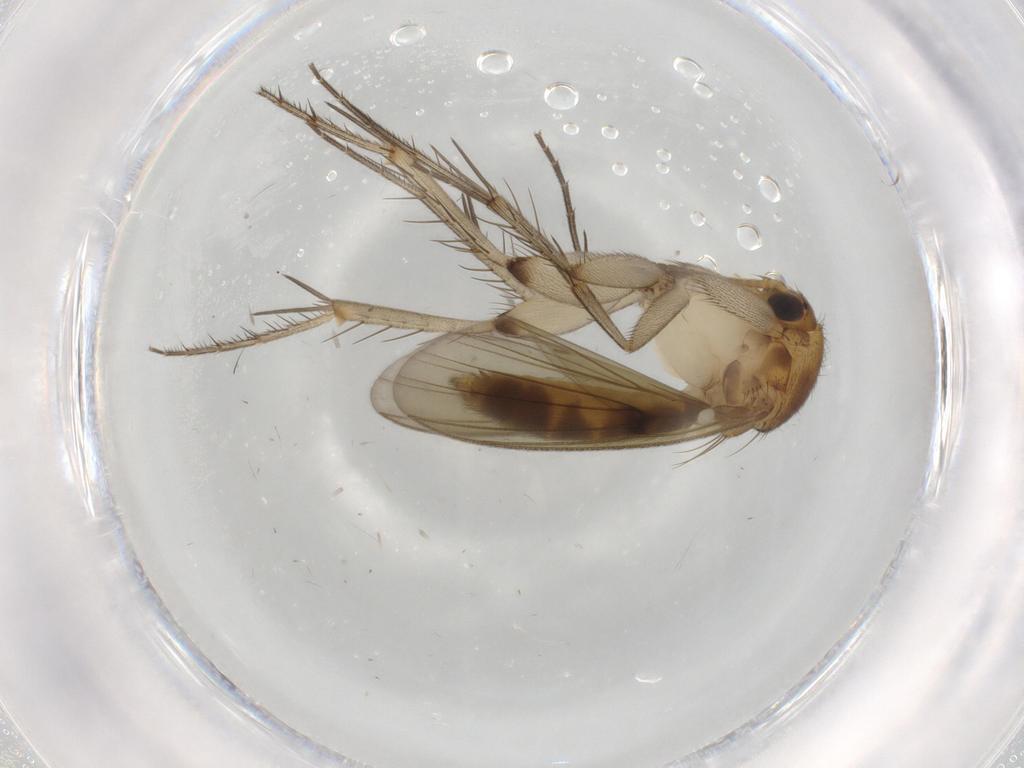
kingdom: Animalia
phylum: Arthropoda
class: Insecta
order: Diptera
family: Mycetophilidae
